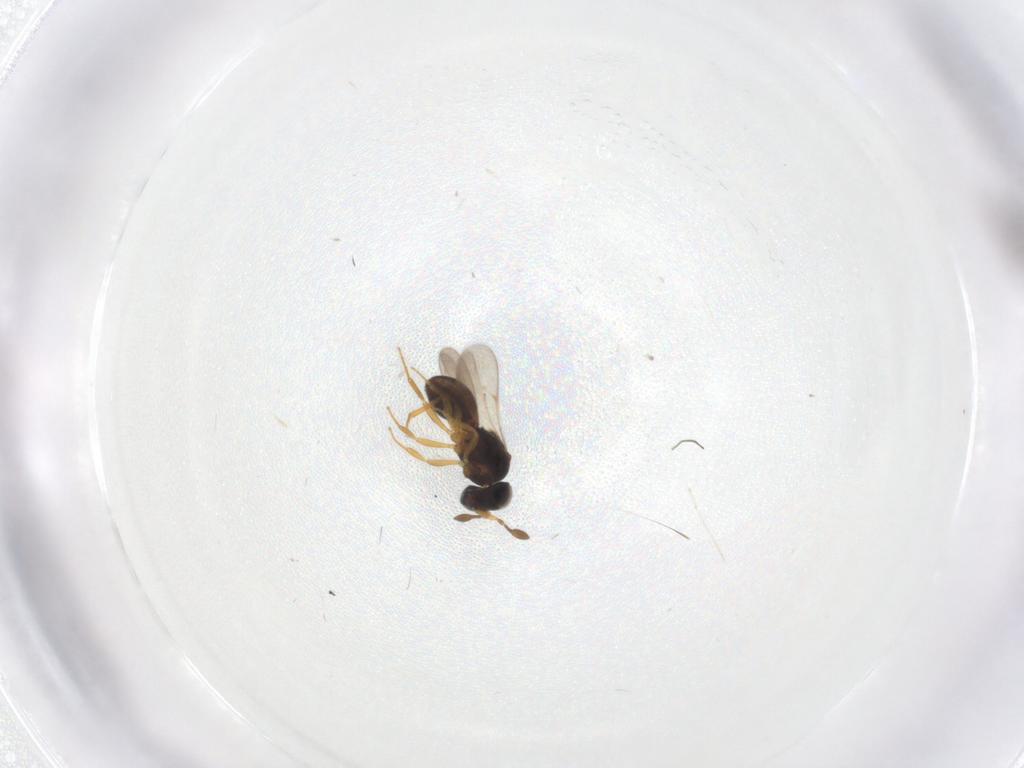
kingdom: Animalia
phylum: Arthropoda
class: Insecta
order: Hymenoptera
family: Scelionidae
